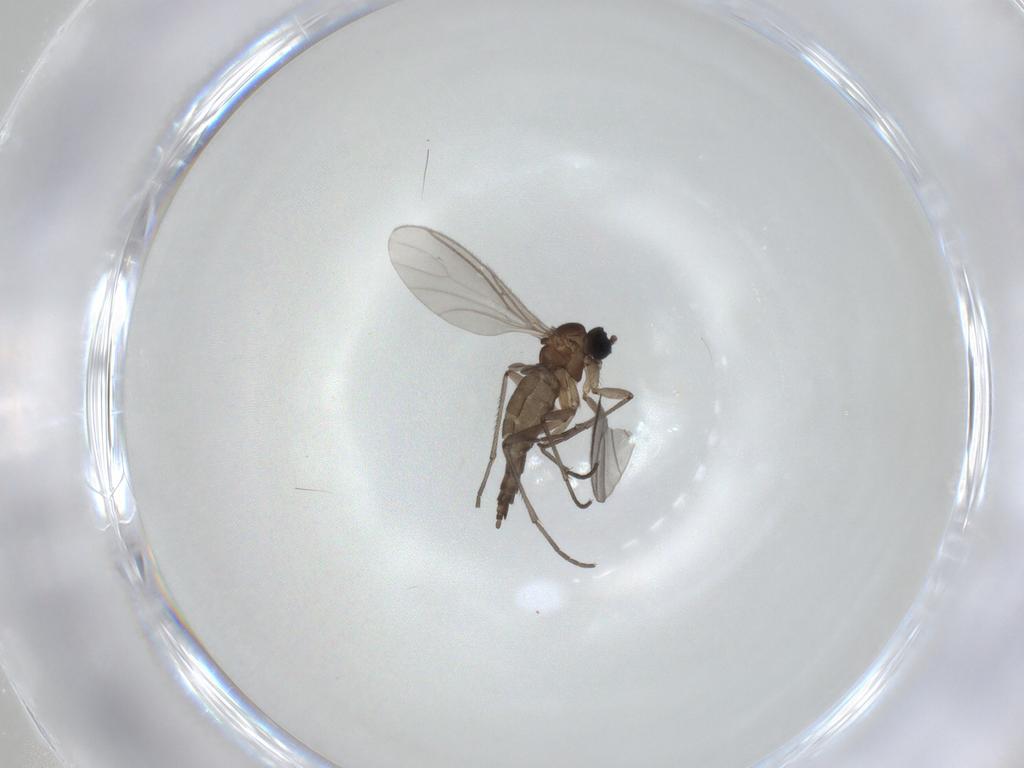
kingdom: Animalia
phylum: Arthropoda
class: Insecta
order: Diptera
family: Sciaridae
